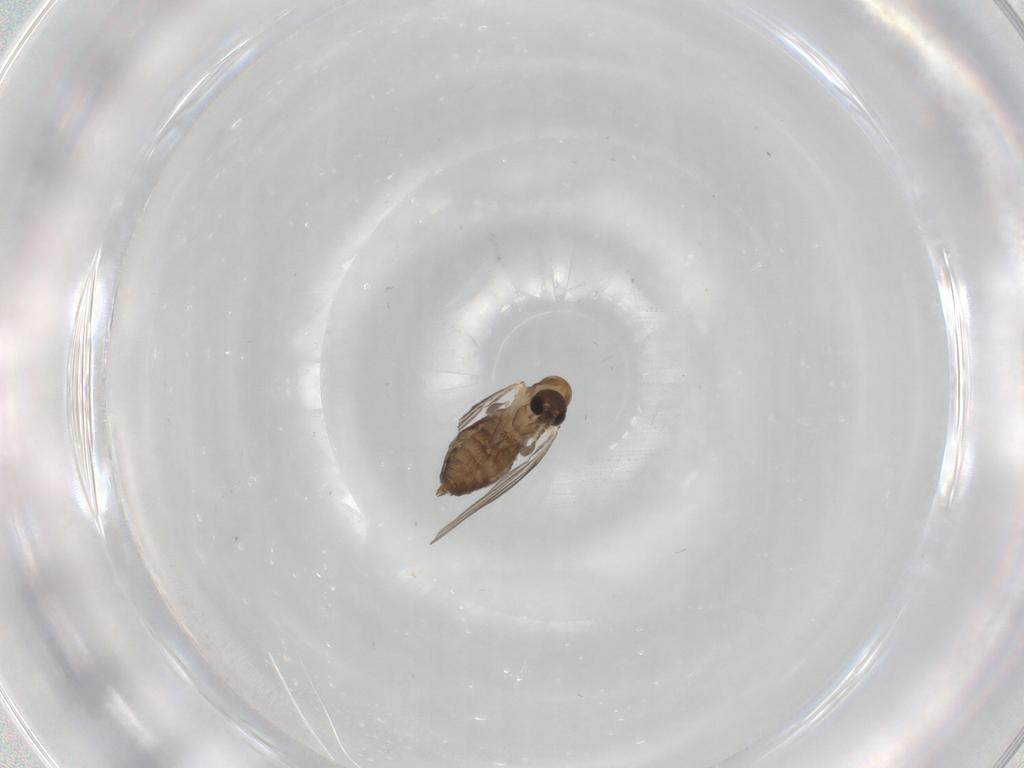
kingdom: Animalia
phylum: Arthropoda
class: Insecta
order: Diptera
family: Psychodidae
